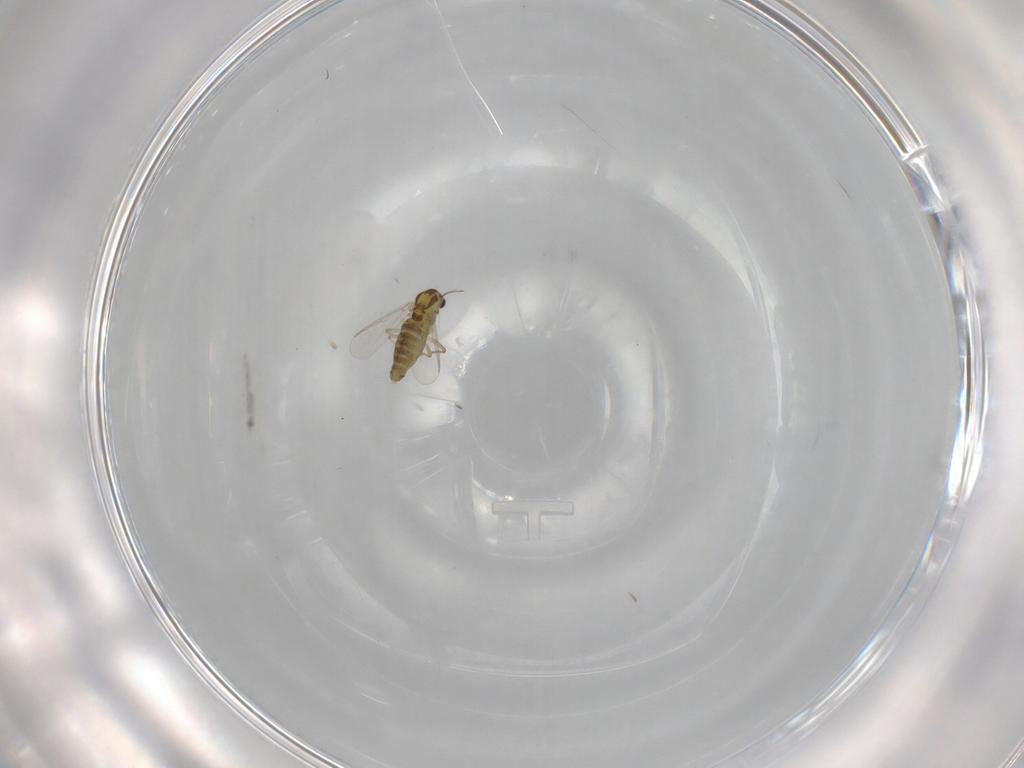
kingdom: Animalia
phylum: Arthropoda
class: Insecta
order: Diptera
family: Chironomidae
